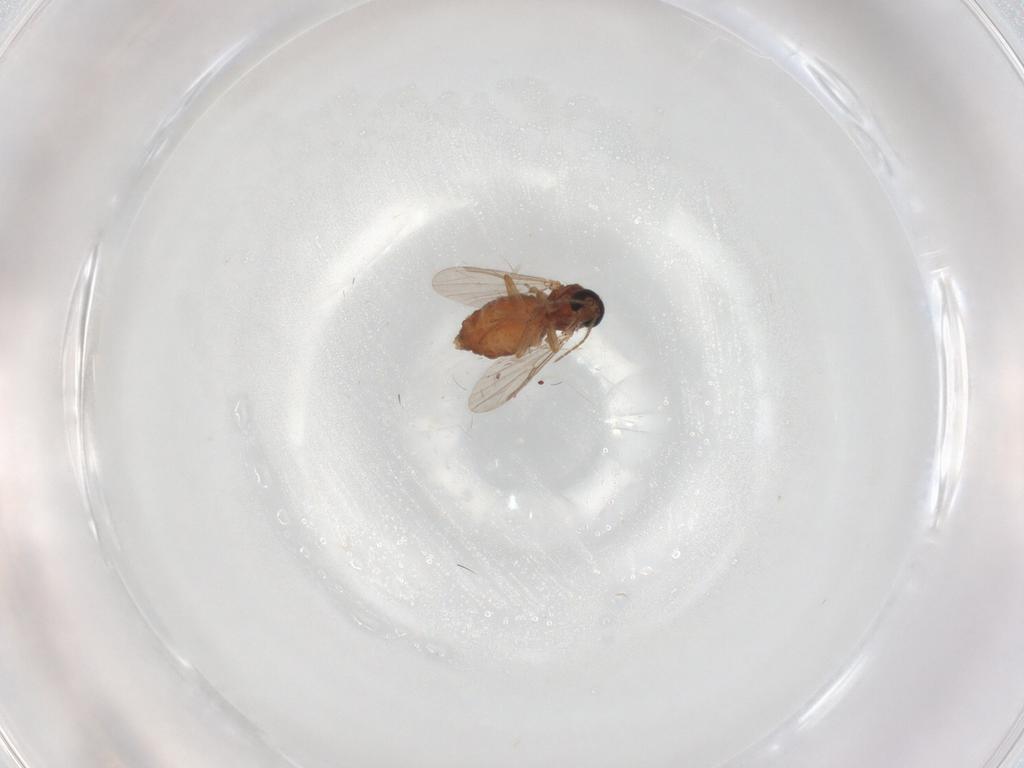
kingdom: Animalia
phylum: Arthropoda
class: Insecta
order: Diptera
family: Ceratopogonidae
